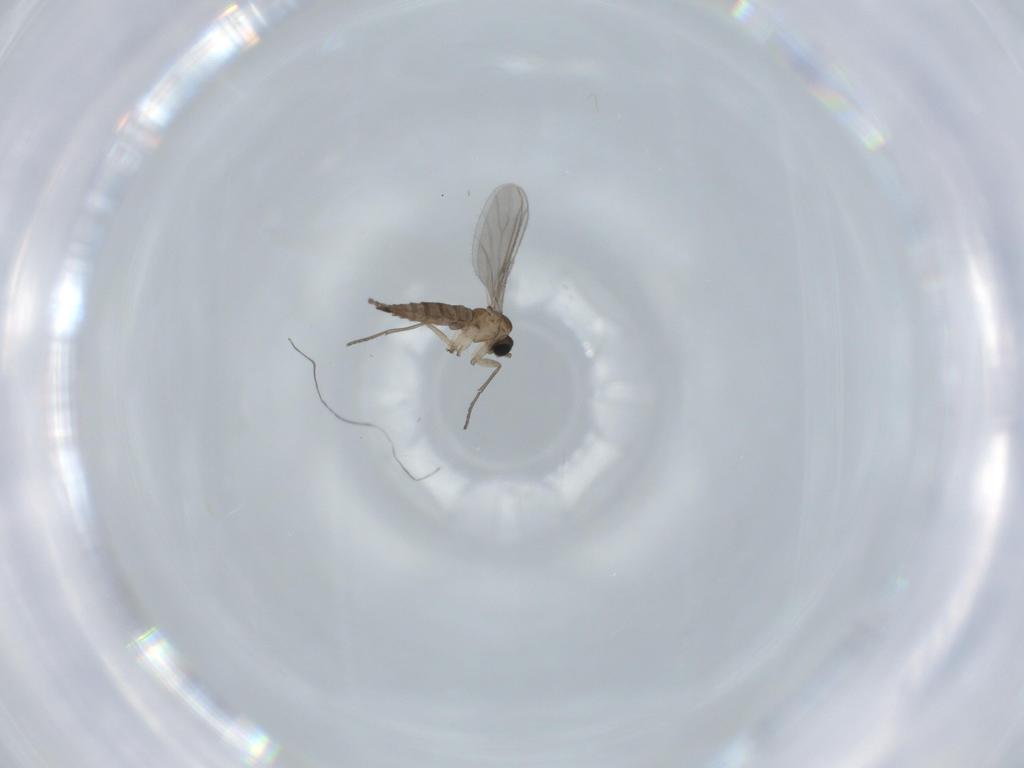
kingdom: Animalia
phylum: Arthropoda
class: Insecta
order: Diptera
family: Sciaridae
